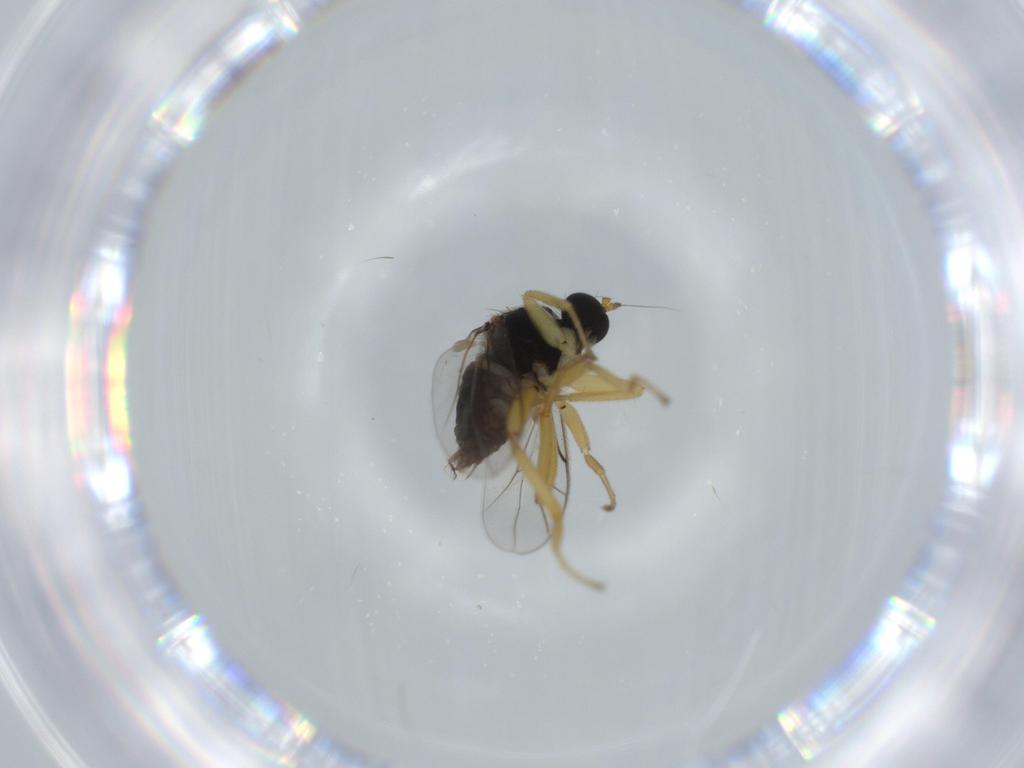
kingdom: Animalia
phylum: Arthropoda
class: Insecta
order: Diptera
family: Hybotidae
